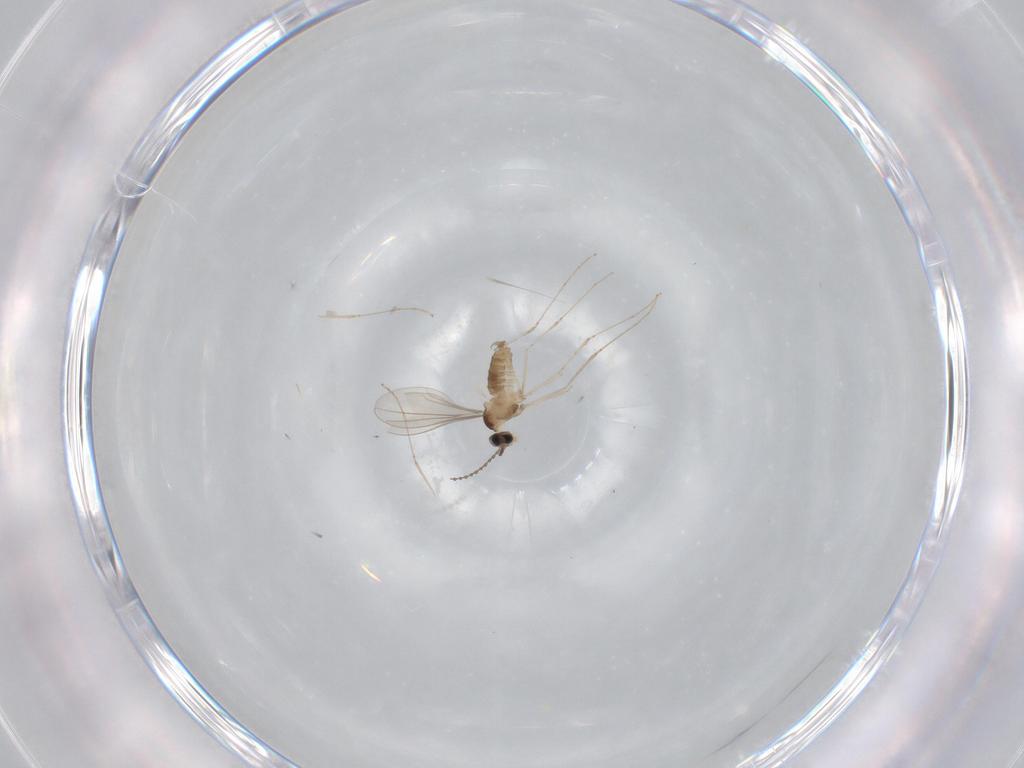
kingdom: Animalia
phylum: Arthropoda
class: Insecta
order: Diptera
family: Cecidomyiidae
